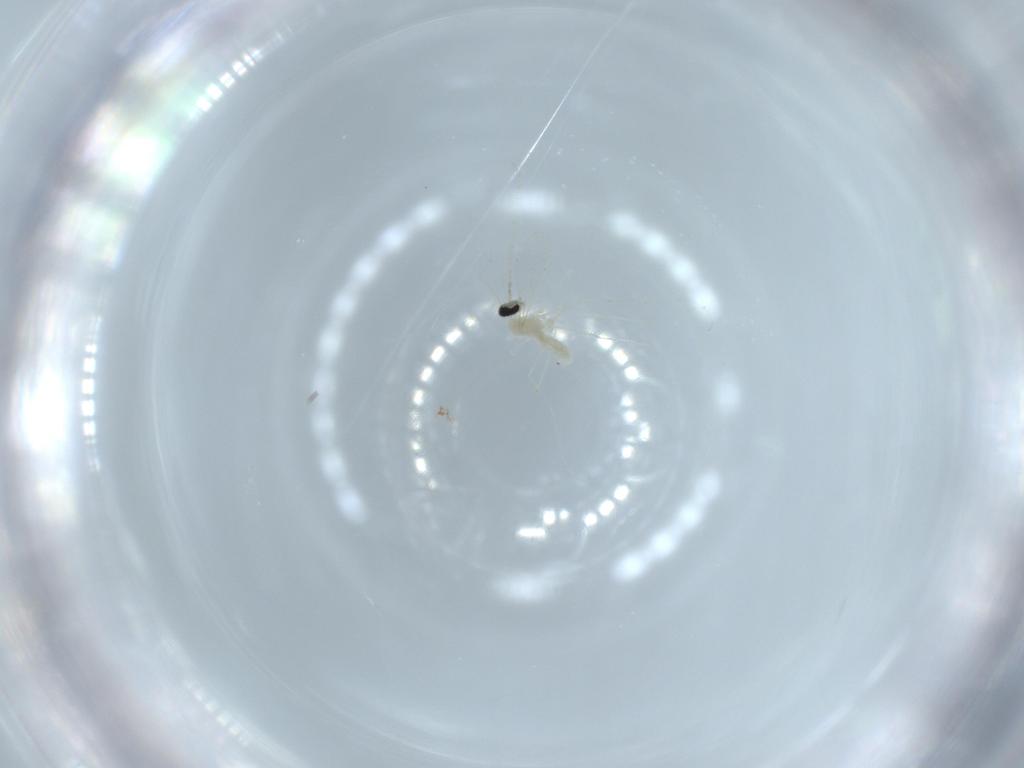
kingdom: Animalia
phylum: Arthropoda
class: Insecta
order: Diptera
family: Cecidomyiidae
